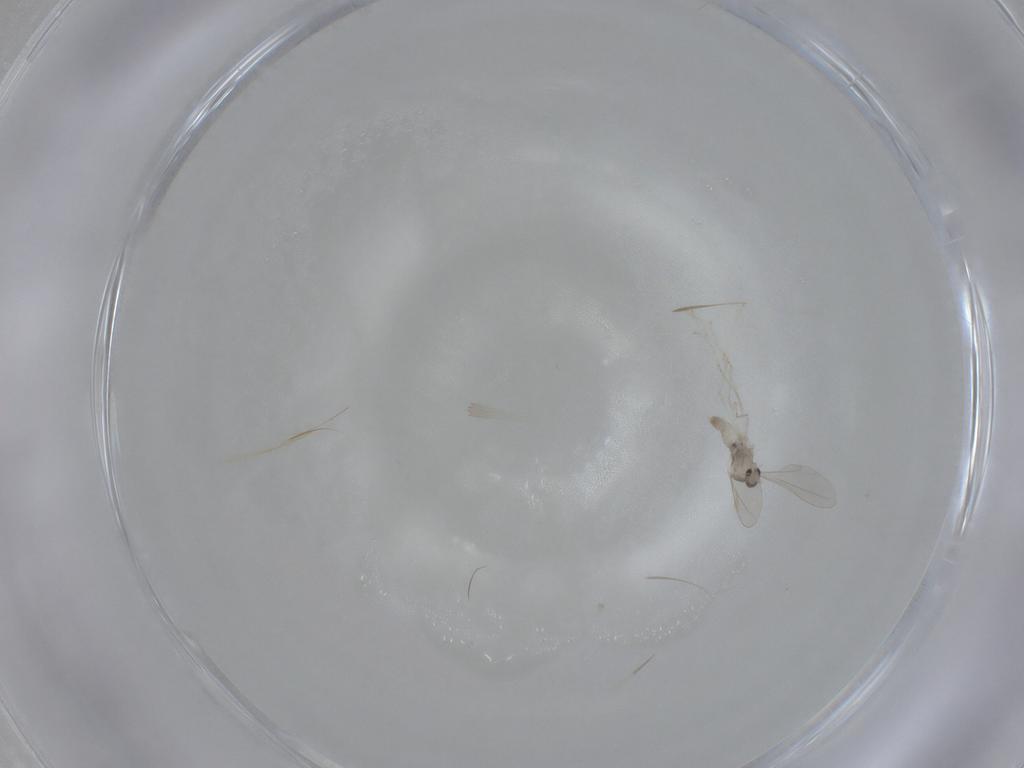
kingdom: Animalia
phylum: Arthropoda
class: Insecta
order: Diptera
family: Cecidomyiidae
